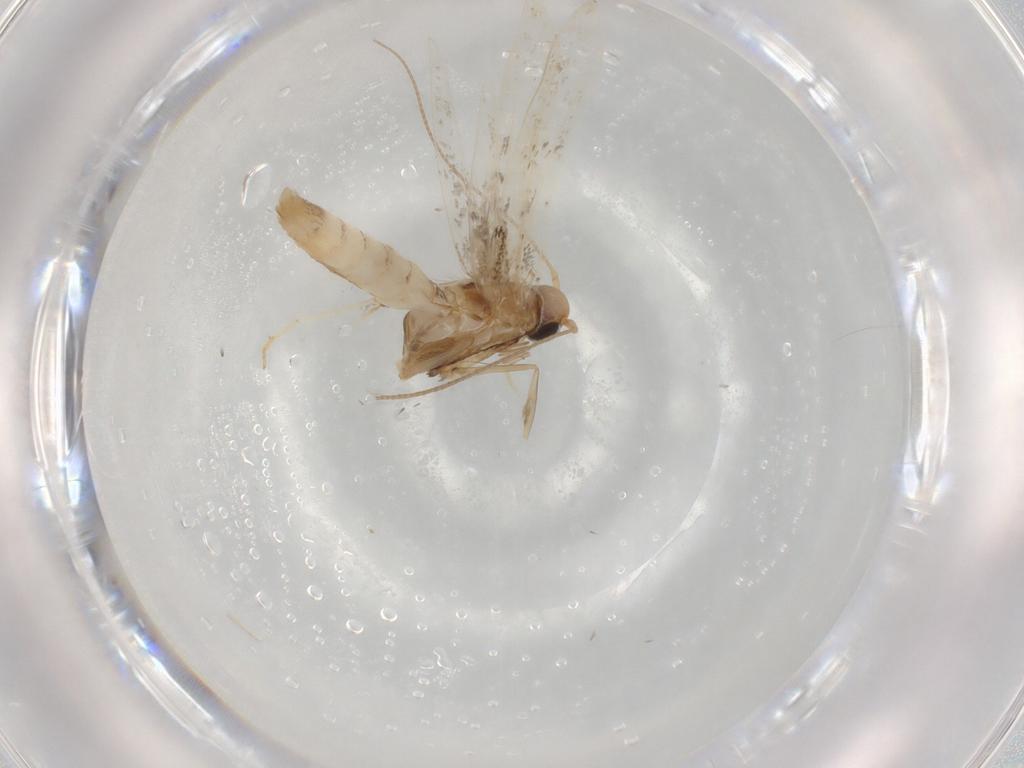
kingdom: Animalia
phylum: Arthropoda
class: Insecta
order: Lepidoptera
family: Gracillariidae
